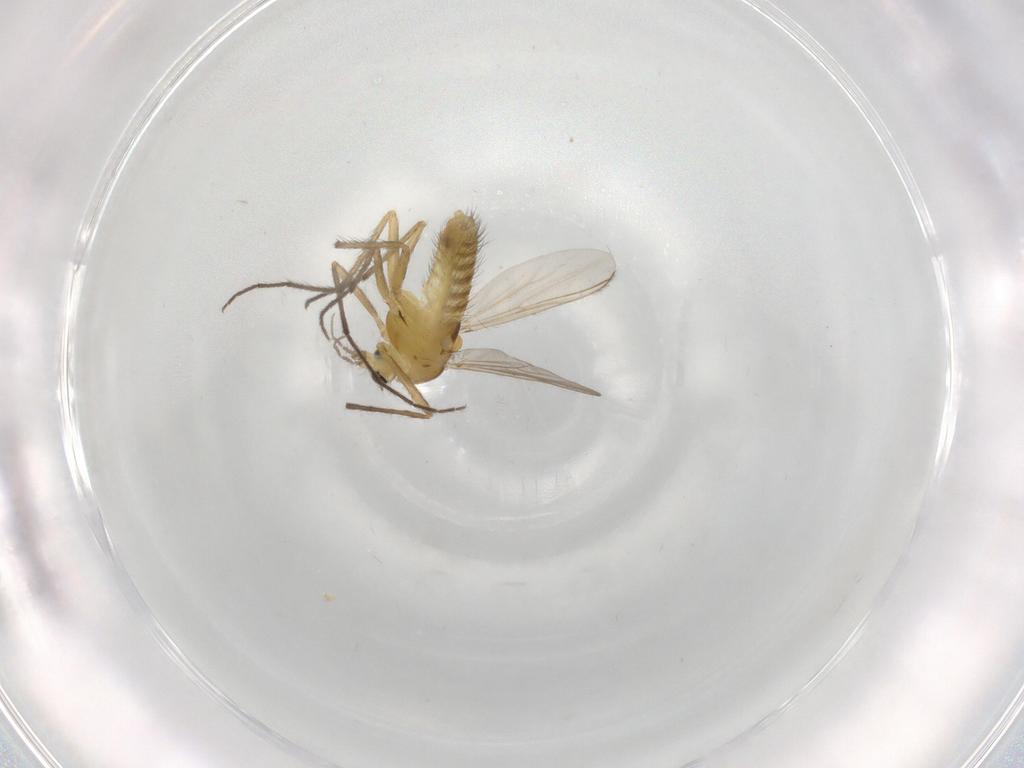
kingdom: Animalia
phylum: Arthropoda
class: Insecta
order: Diptera
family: Chironomidae
